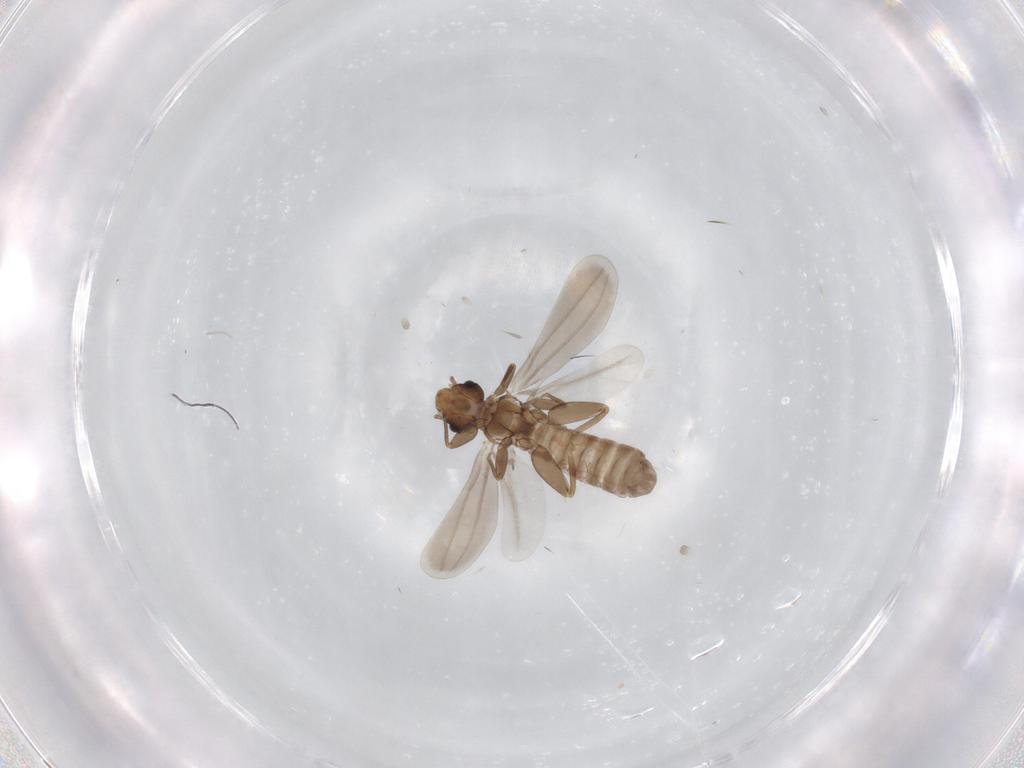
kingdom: Animalia
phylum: Arthropoda
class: Insecta
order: Psocodea
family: Liposcelididae
